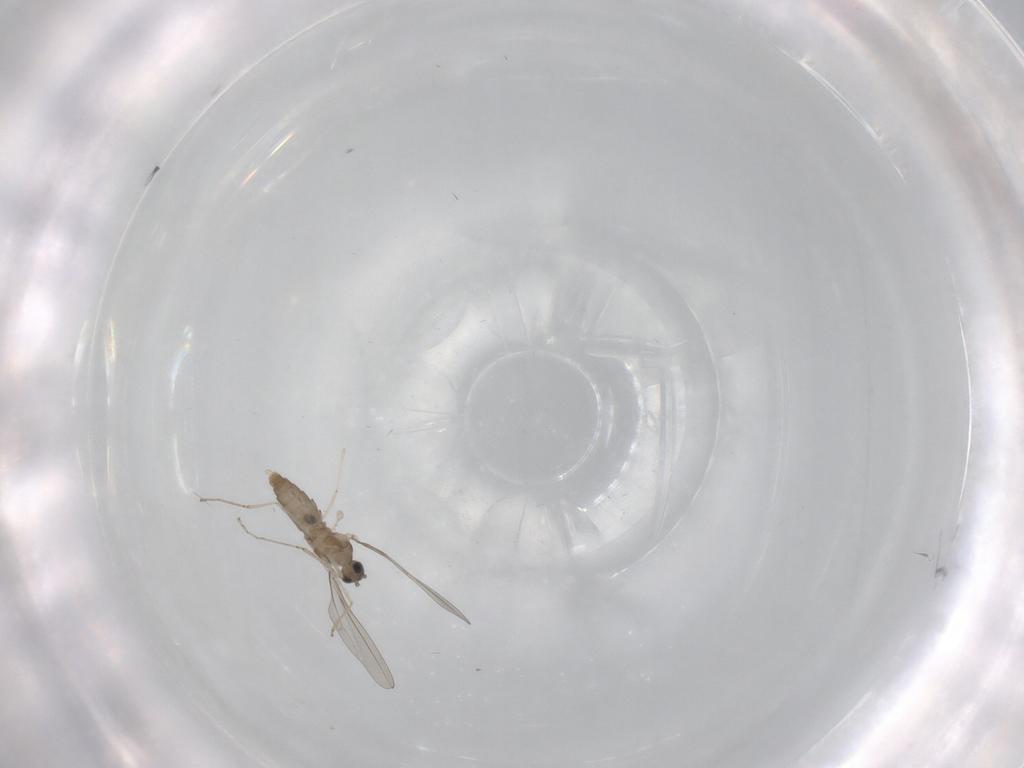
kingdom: Animalia
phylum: Arthropoda
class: Insecta
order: Diptera
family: Cecidomyiidae
